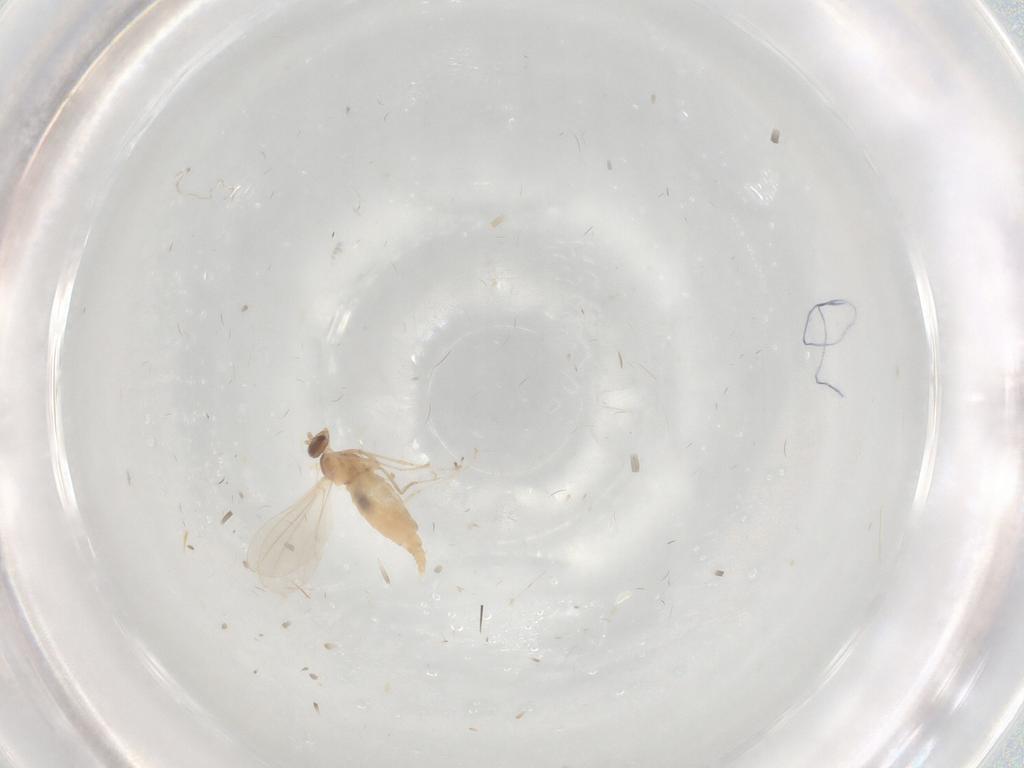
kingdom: Animalia
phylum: Arthropoda
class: Insecta
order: Diptera
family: Cecidomyiidae
